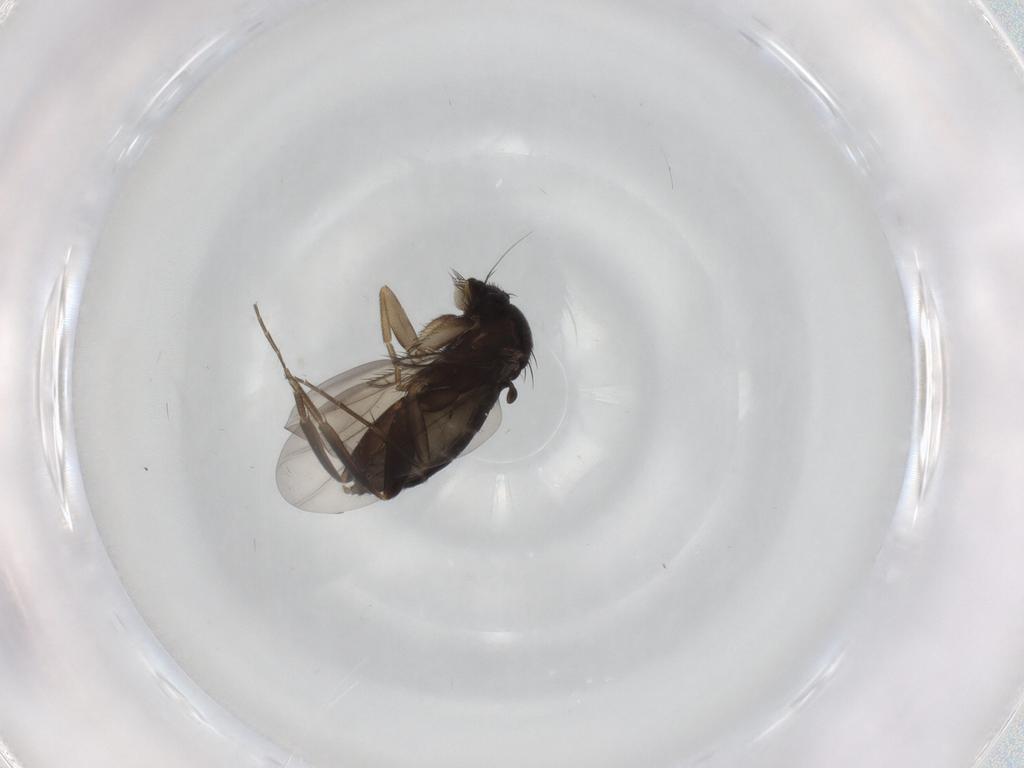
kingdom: Animalia
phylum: Arthropoda
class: Insecta
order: Diptera
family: Phoridae
